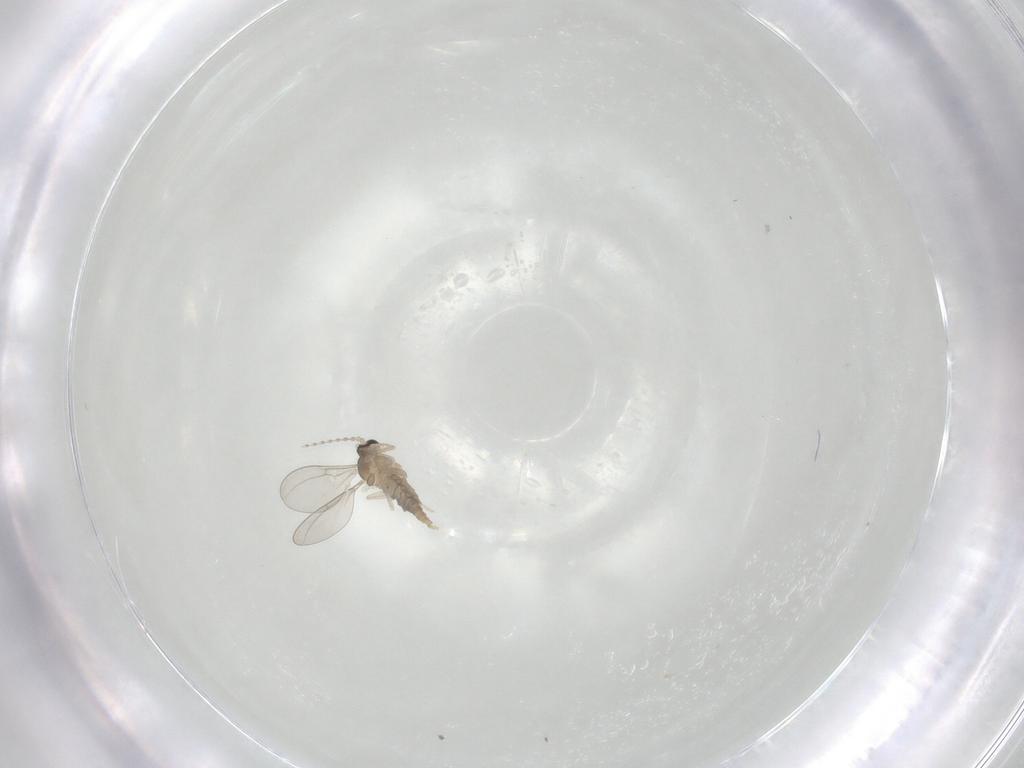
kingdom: Animalia
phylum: Arthropoda
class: Insecta
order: Diptera
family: Cecidomyiidae
